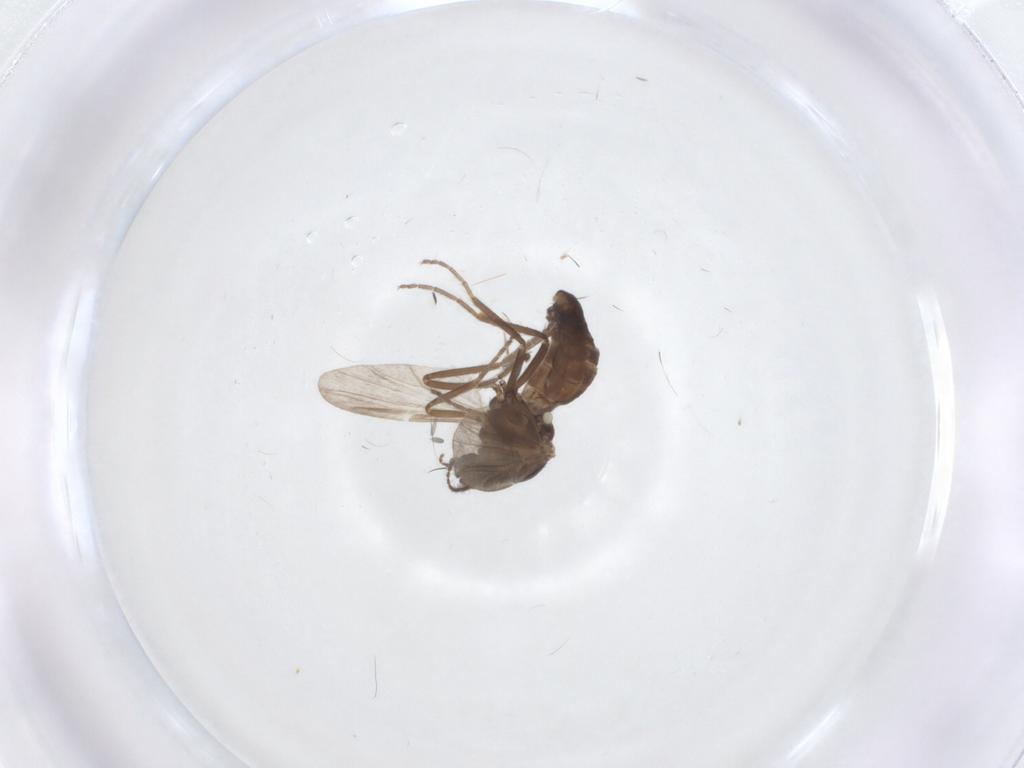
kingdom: Animalia
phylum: Arthropoda
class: Insecta
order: Diptera
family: Ceratopogonidae
